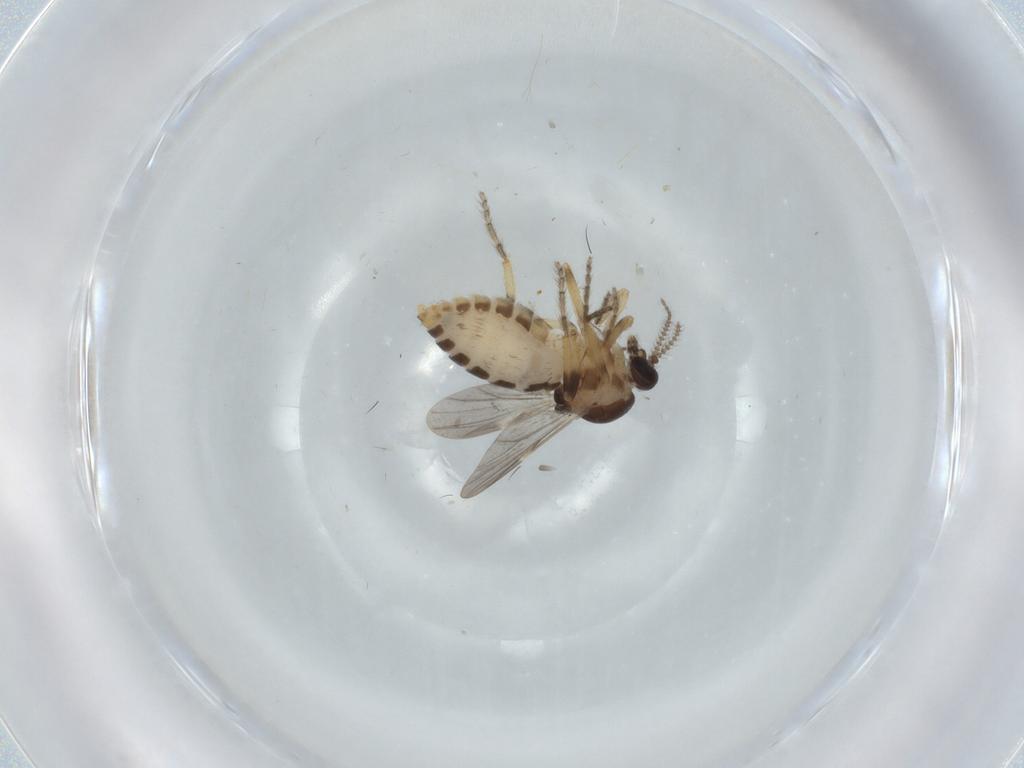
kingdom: Animalia
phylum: Arthropoda
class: Insecta
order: Diptera
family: Ceratopogonidae
